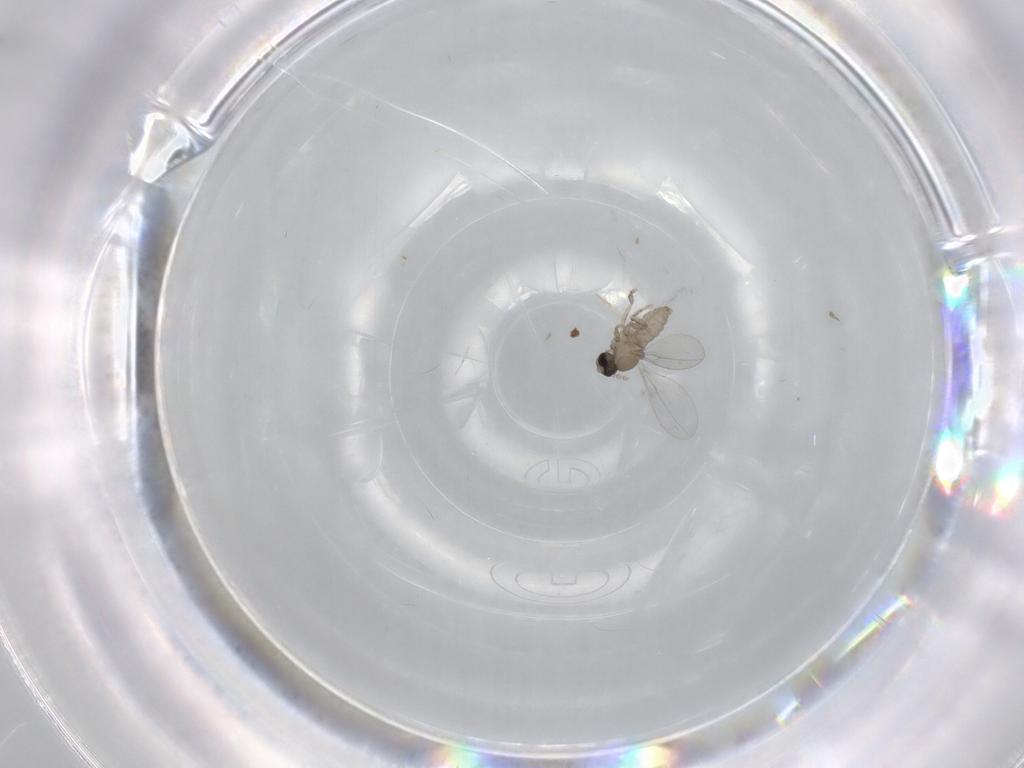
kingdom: Animalia
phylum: Arthropoda
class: Insecta
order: Diptera
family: Cecidomyiidae
